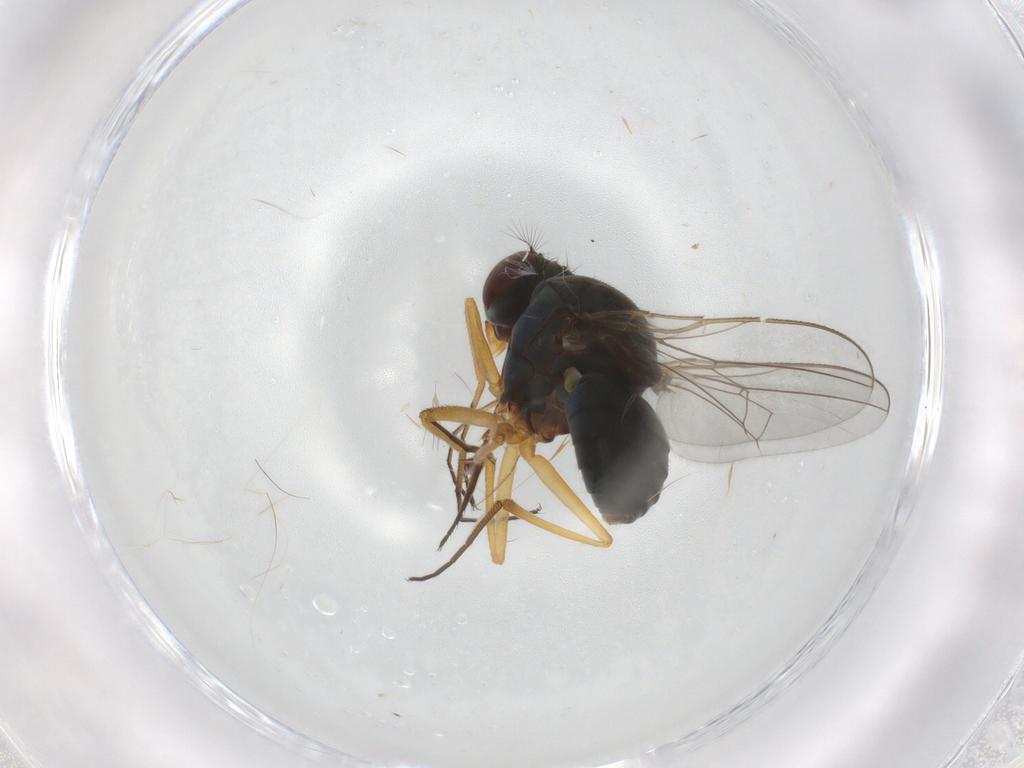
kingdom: Animalia
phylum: Arthropoda
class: Insecta
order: Diptera
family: Ephydridae
